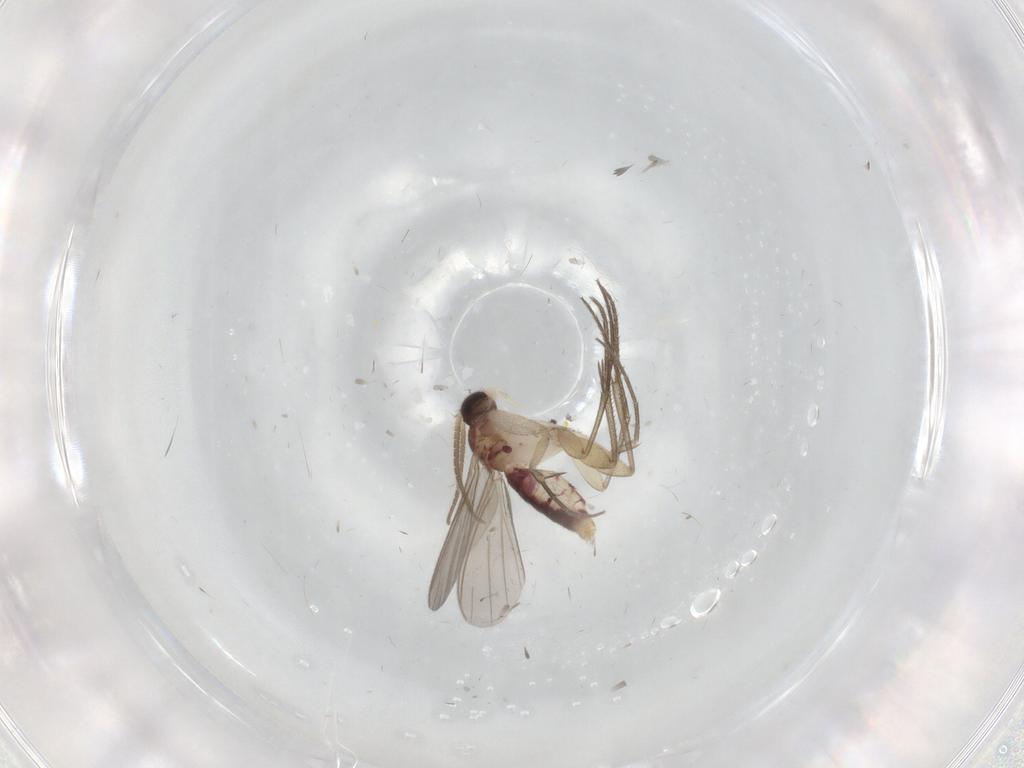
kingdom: Animalia
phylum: Arthropoda
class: Insecta
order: Diptera
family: Mycetophilidae
